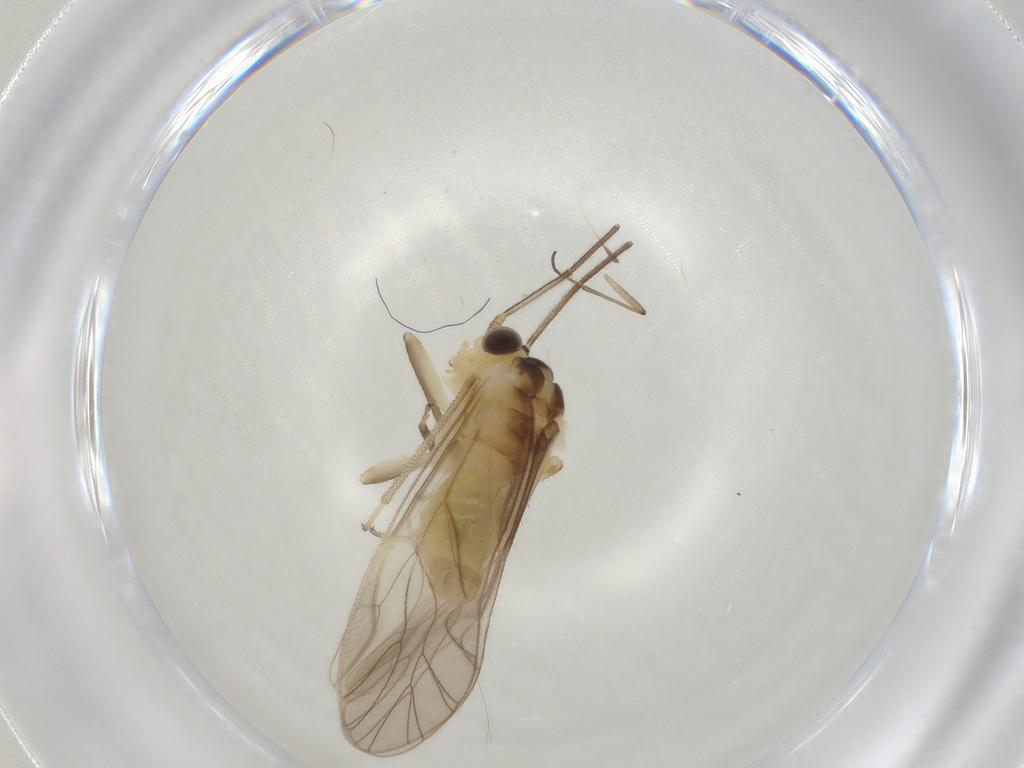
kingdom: Animalia
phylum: Arthropoda
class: Insecta
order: Psocodea
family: Caeciliusidae
